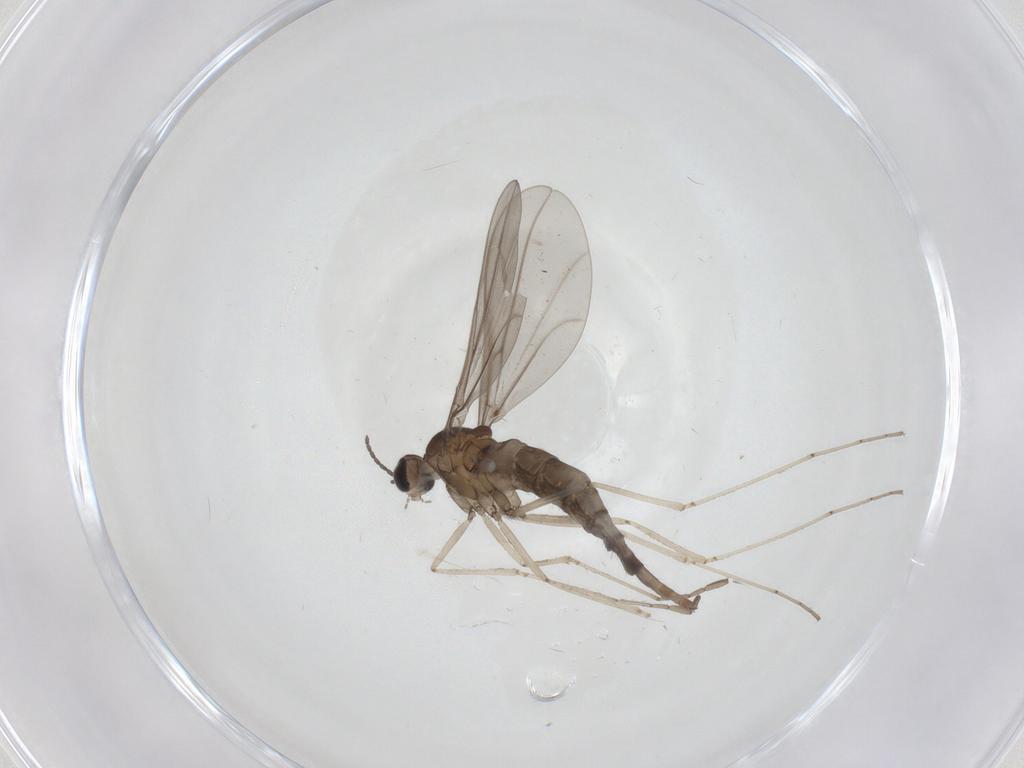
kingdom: Animalia
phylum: Arthropoda
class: Insecta
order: Diptera
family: Cecidomyiidae
